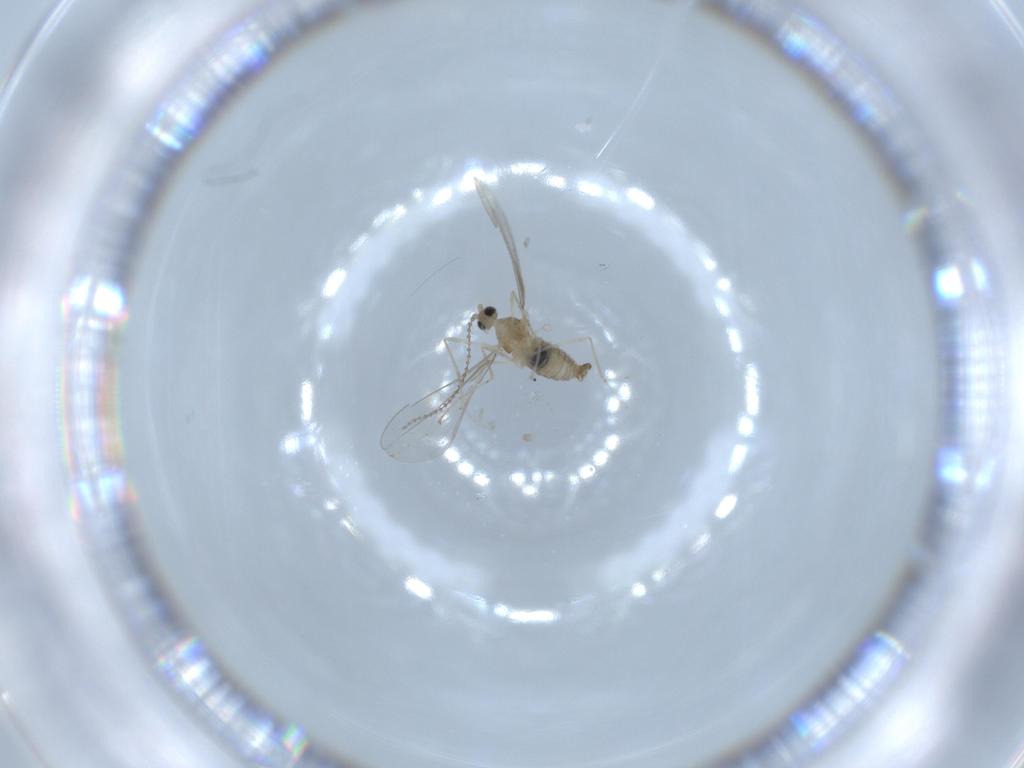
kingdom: Animalia
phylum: Arthropoda
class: Insecta
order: Diptera
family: Cecidomyiidae
